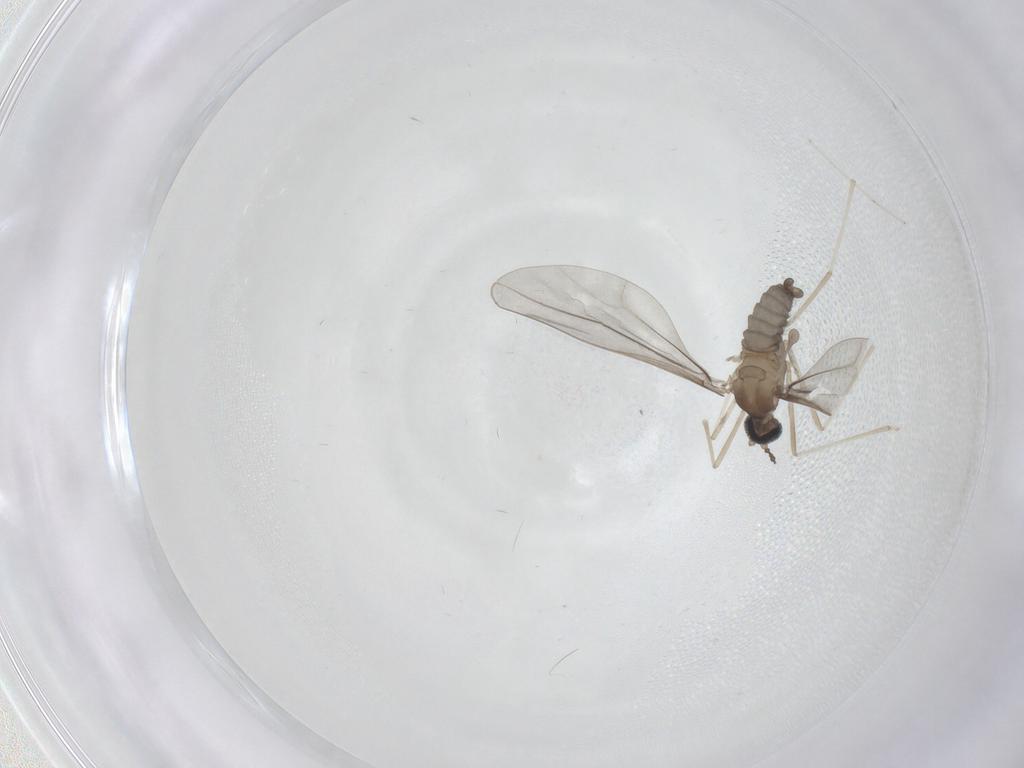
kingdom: Animalia
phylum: Arthropoda
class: Insecta
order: Diptera
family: Cecidomyiidae
